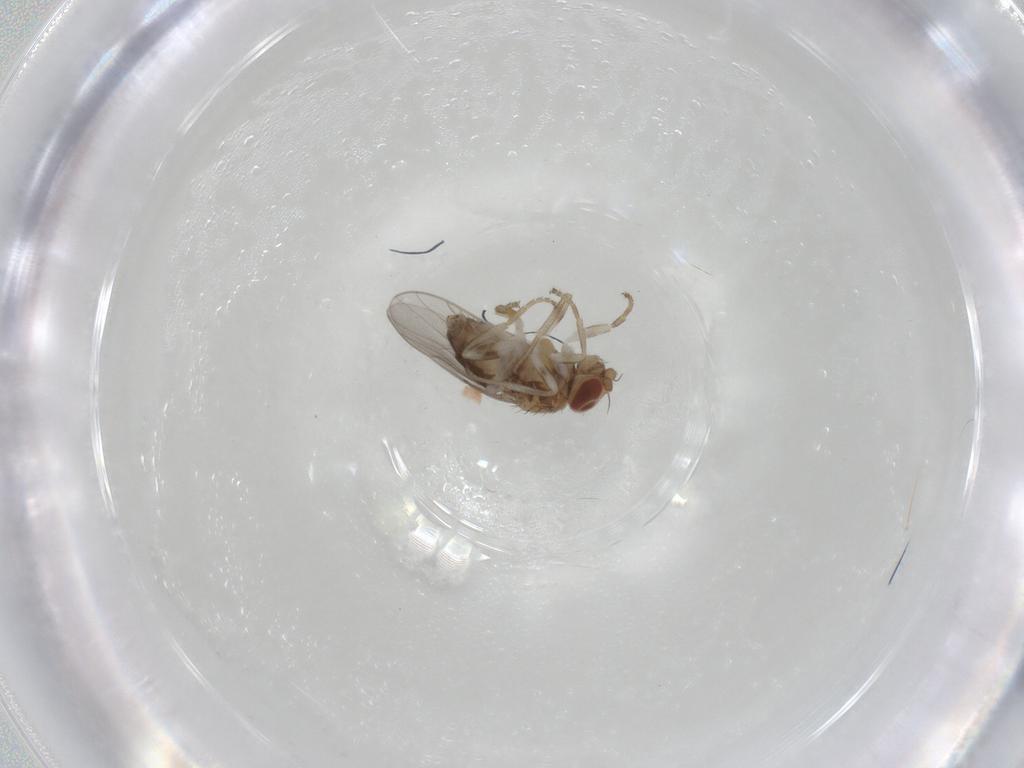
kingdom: Animalia
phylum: Arthropoda
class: Insecta
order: Diptera
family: Chloropidae
